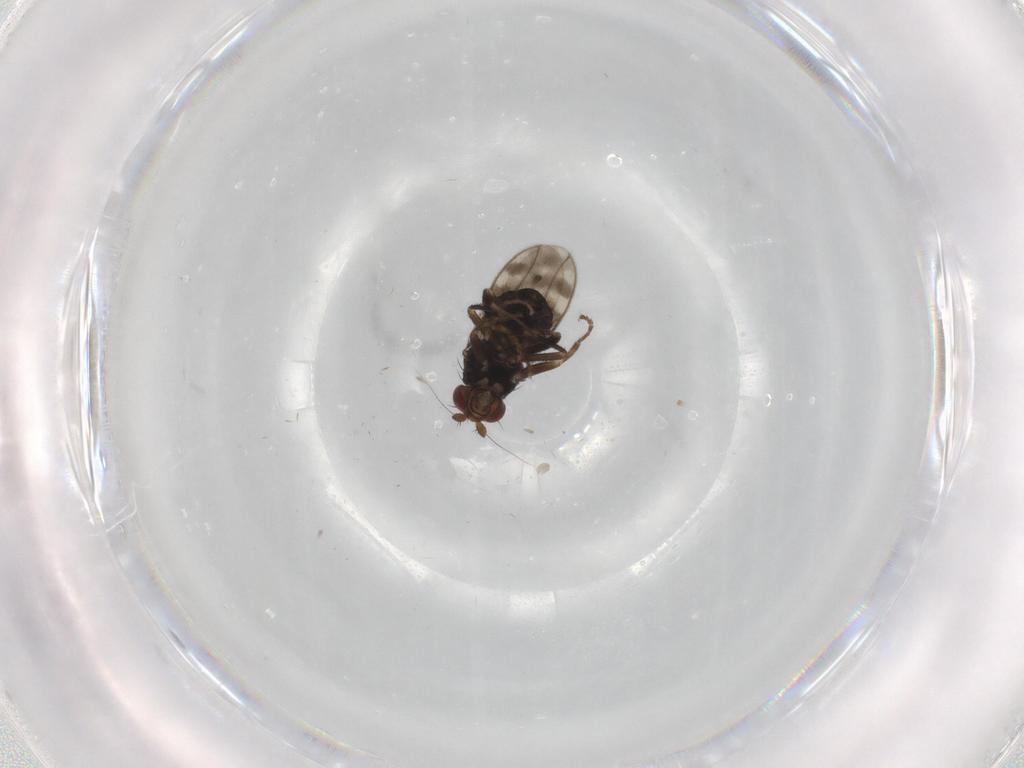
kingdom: Animalia
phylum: Arthropoda
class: Insecta
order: Diptera
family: Sphaeroceridae
